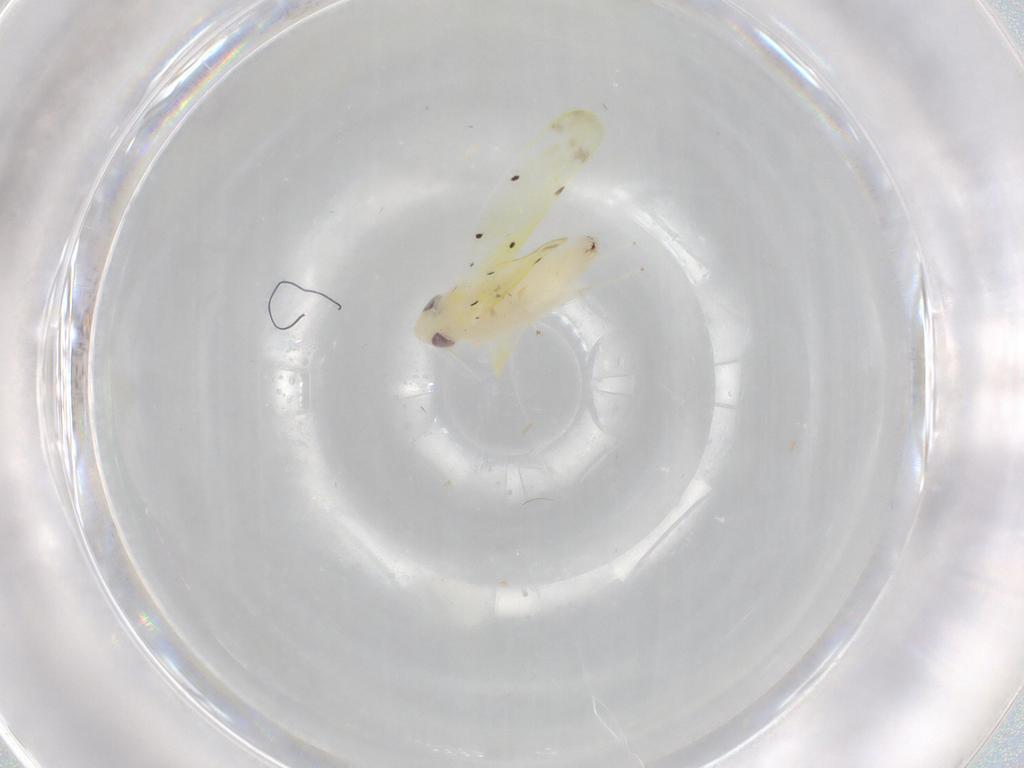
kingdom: Animalia
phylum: Arthropoda
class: Insecta
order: Hemiptera
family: Cicadellidae
